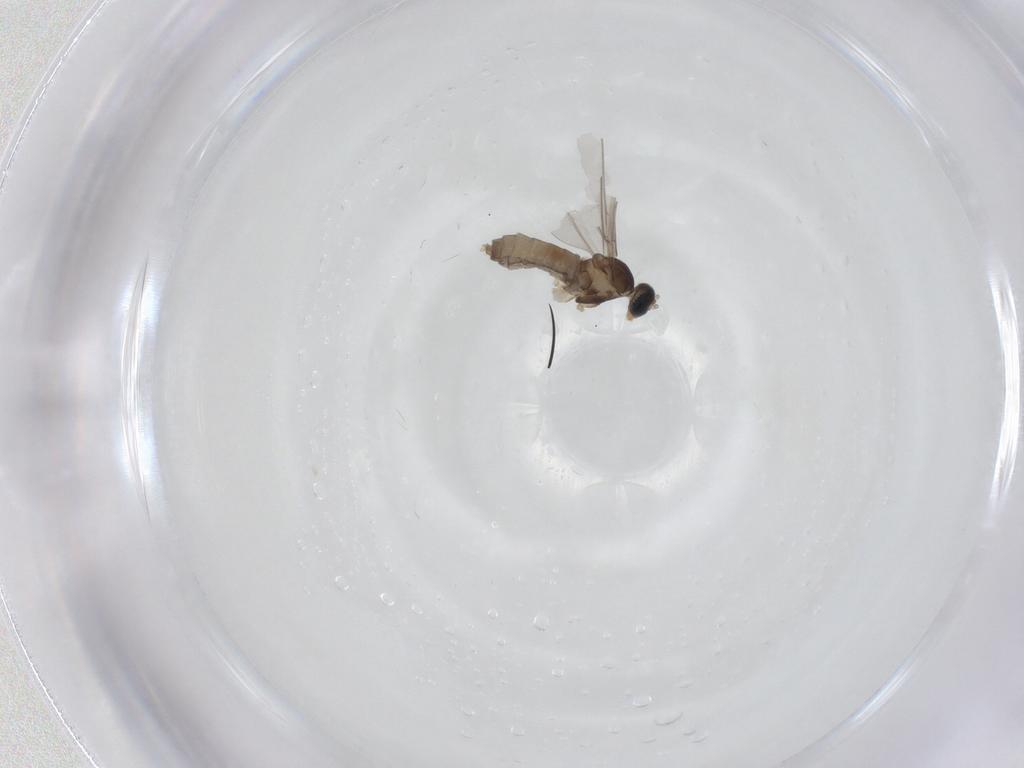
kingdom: Animalia
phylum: Arthropoda
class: Insecta
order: Diptera
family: Cecidomyiidae
